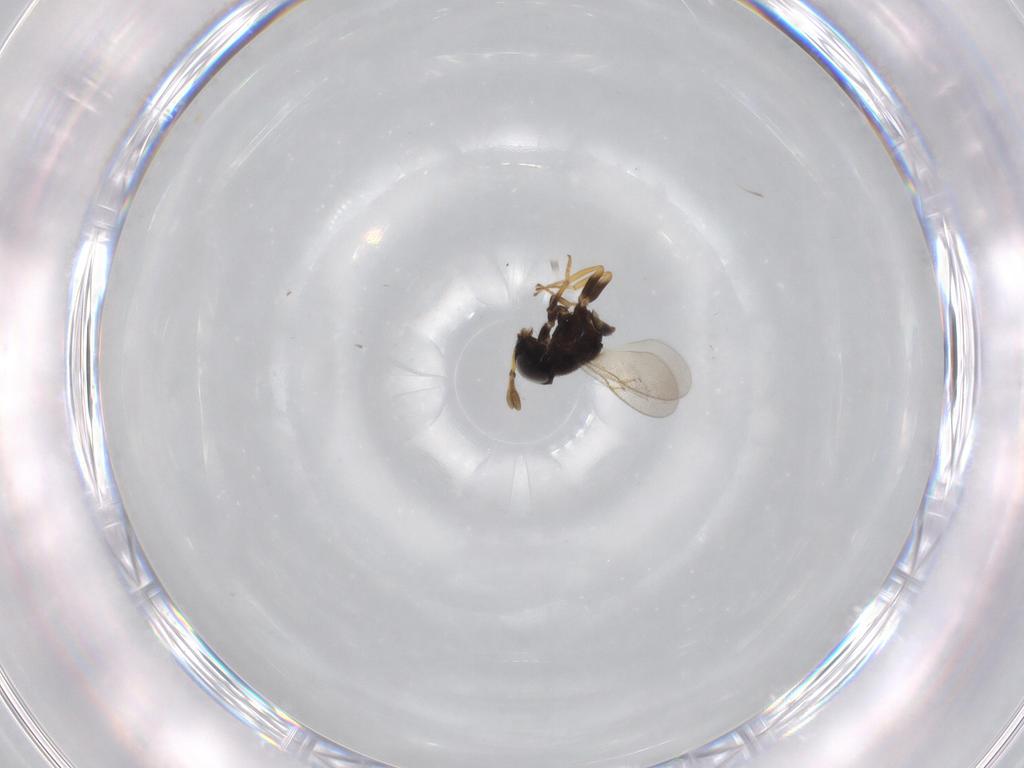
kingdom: Animalia
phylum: Arthropoda
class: Insecta
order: Hymenoptera
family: Encyrtidae
